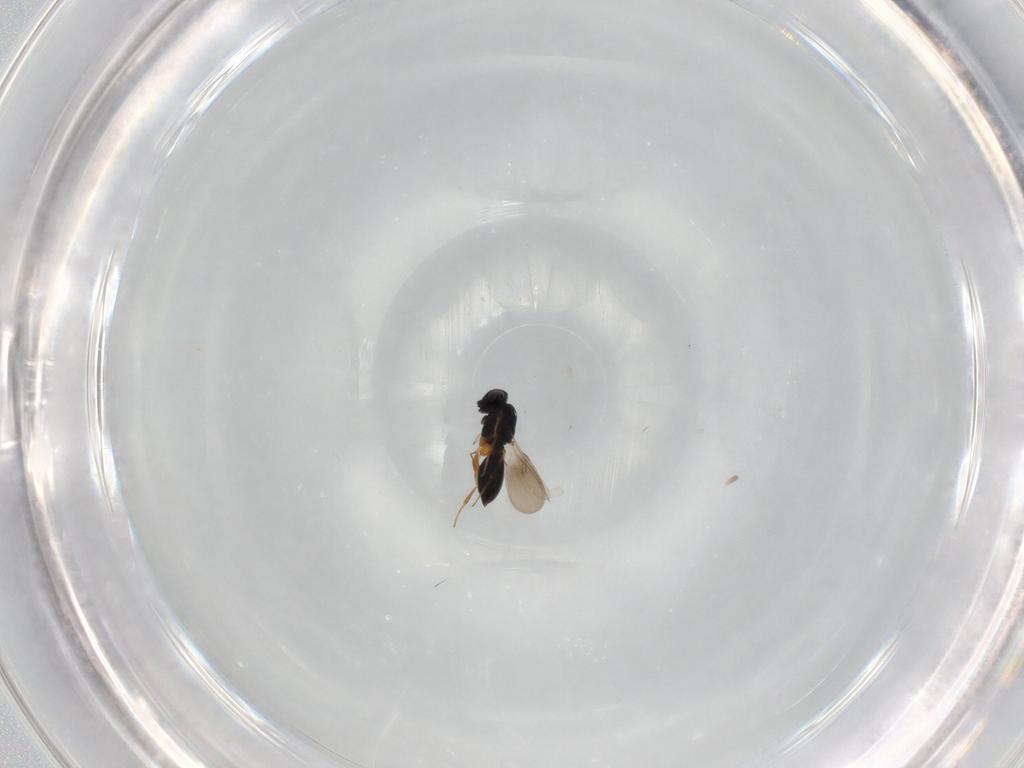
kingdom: Animalia
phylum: Arthropoda
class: Insecta
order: Hymenoptera
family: Scelionidae
